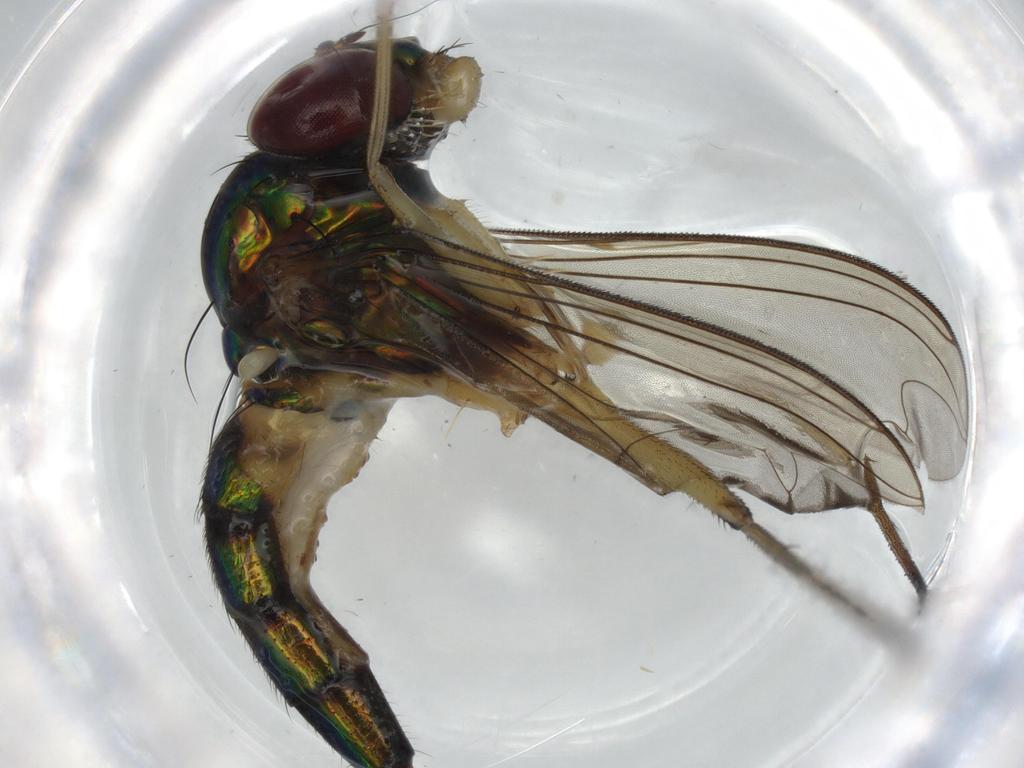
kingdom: Animalia
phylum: Arthropoda
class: Insecta
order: Diptera
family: Dolichopodidae
